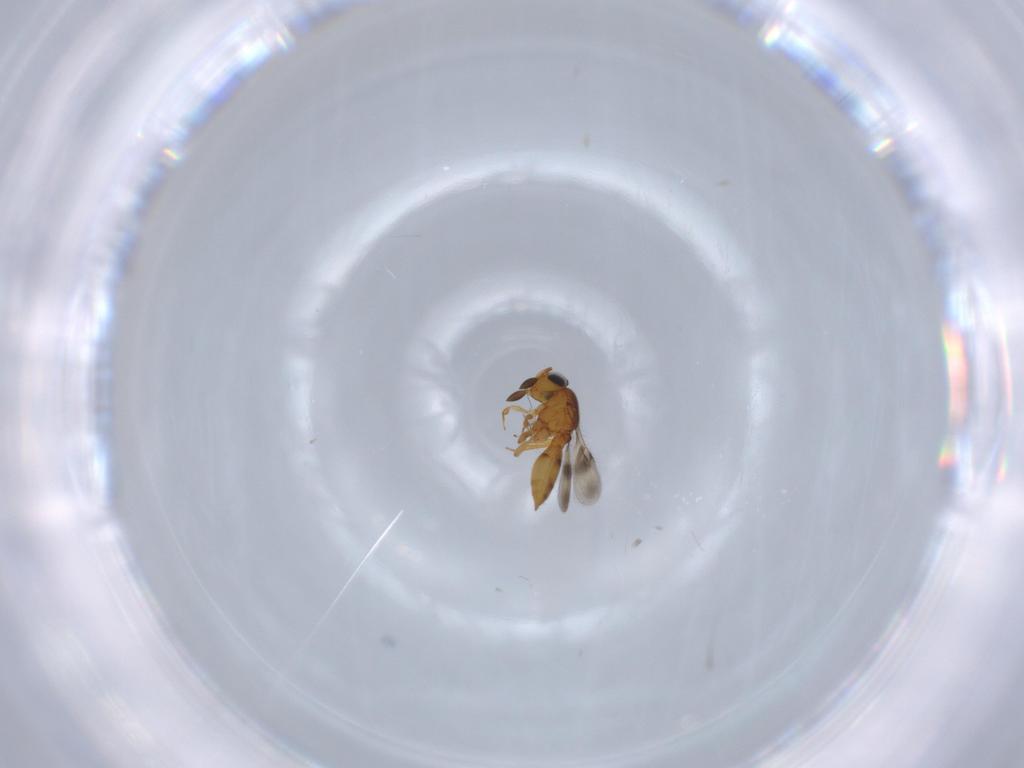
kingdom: Animalia
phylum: Arthropoda
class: Insecta
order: Hymenoptera
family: Scelionidae
